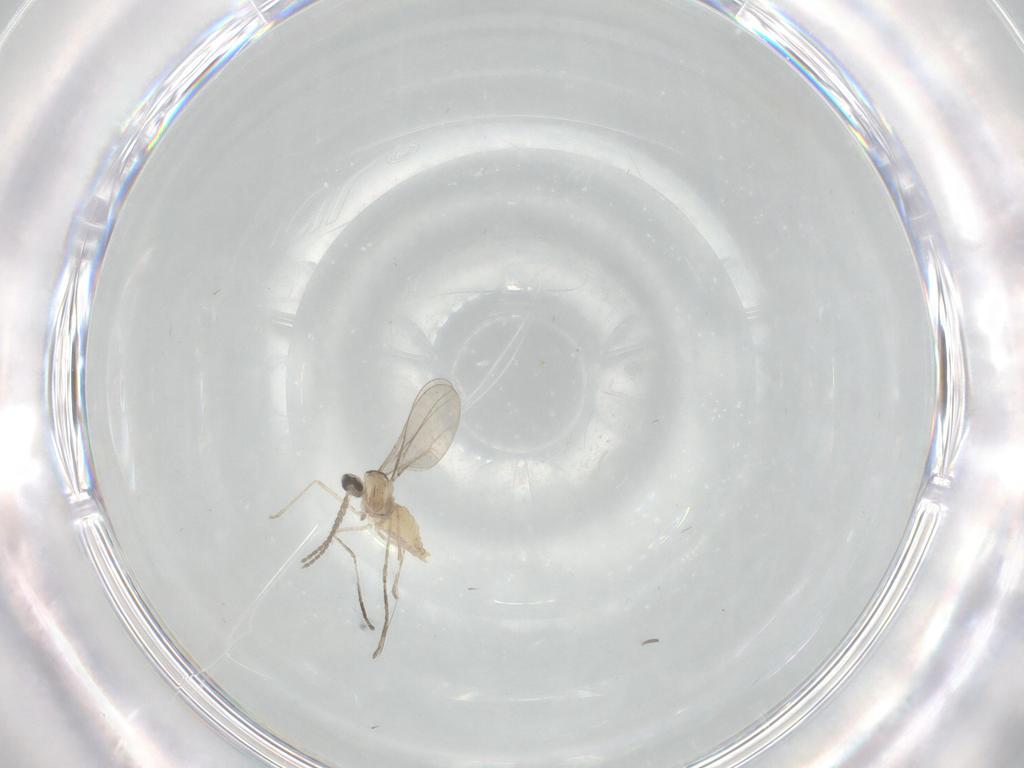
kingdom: Animalia
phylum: Arthropoda
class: Insecta
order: Diptera
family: Cecidomyiidae
